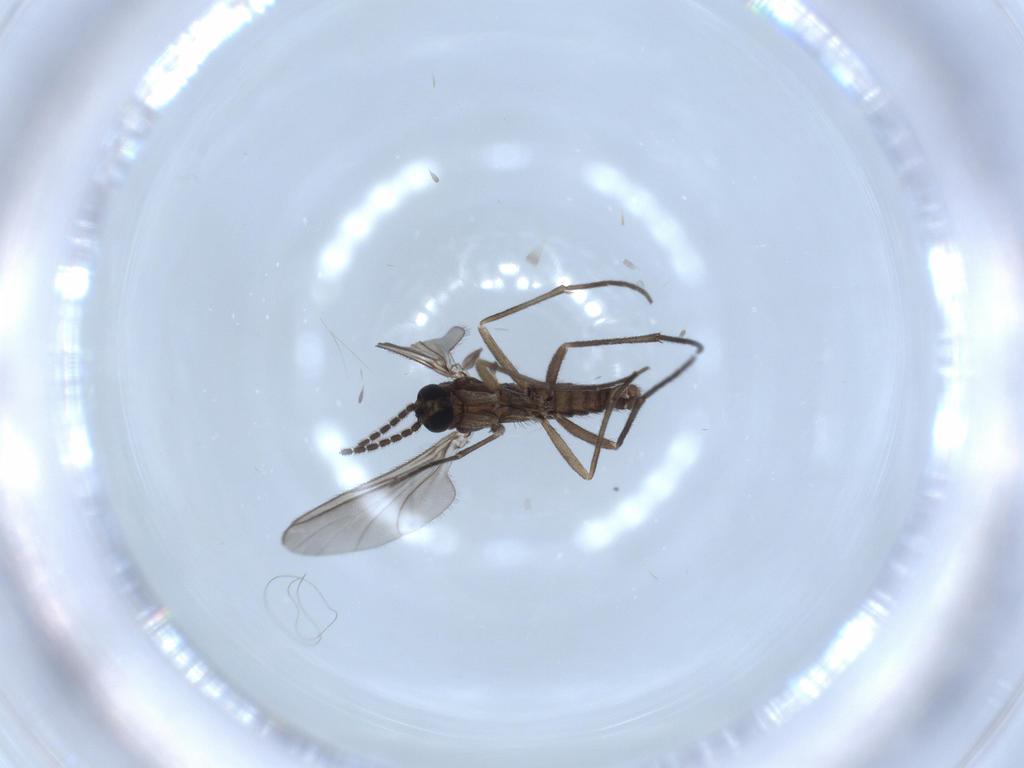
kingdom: Animalia
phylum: Arthropoda
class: Insecta
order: Diptera
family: Sciaridae
